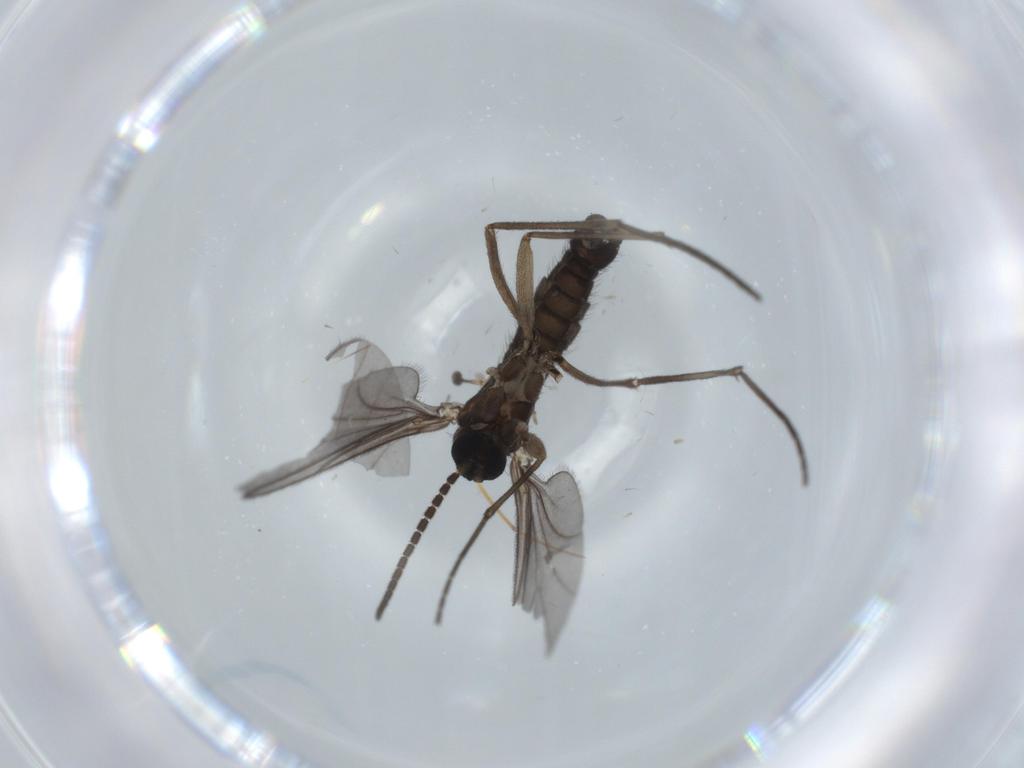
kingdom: Animalia
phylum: Arthropoda
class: Insecta
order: Diptera
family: Sciaridae
